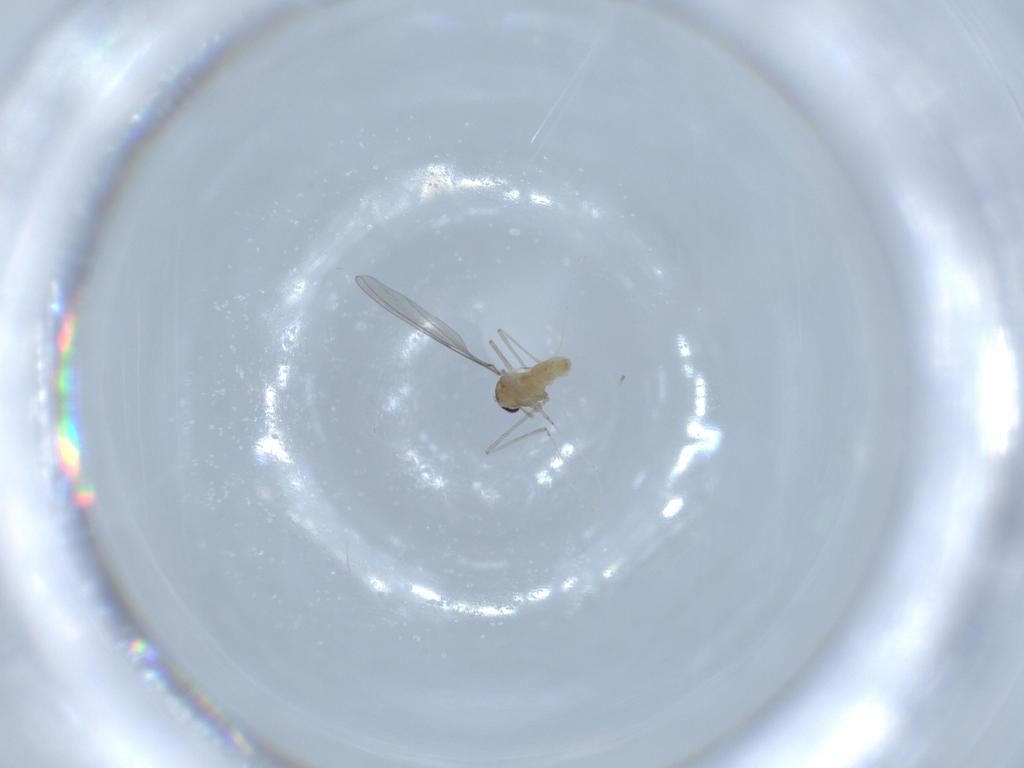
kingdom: Animalia
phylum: Arthropoda
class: Insecta
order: Diptera
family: Cecidomyiidae
